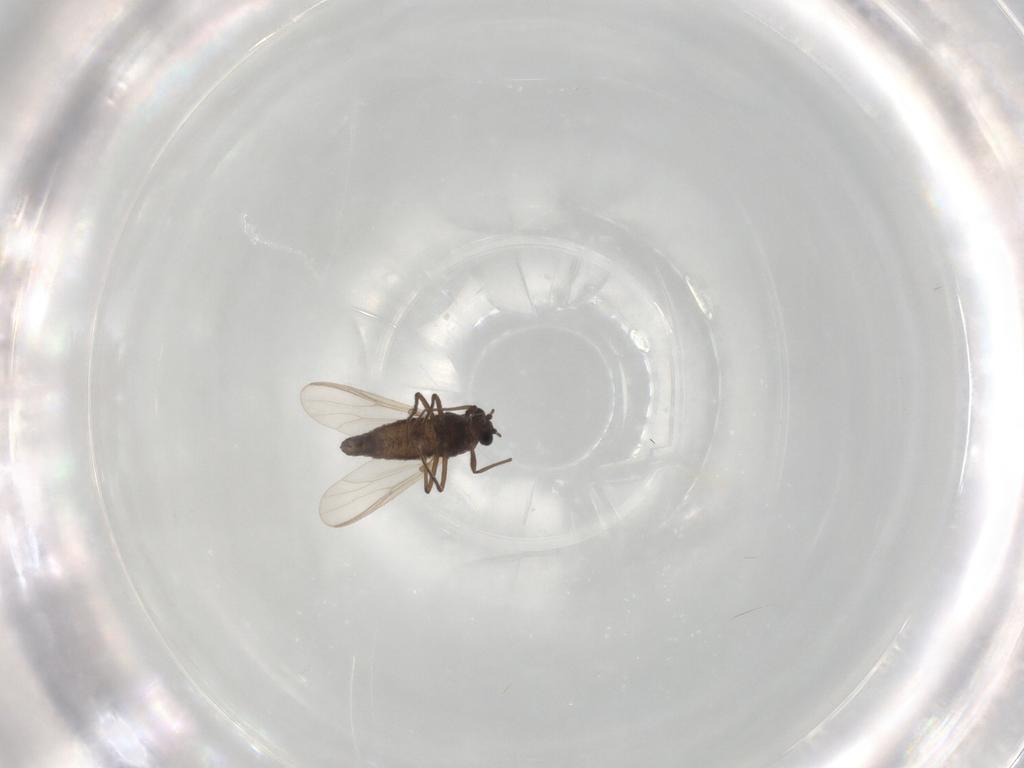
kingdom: Animalia
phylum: Arthropoda
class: Insecta
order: Diptera
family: Chironomidae
